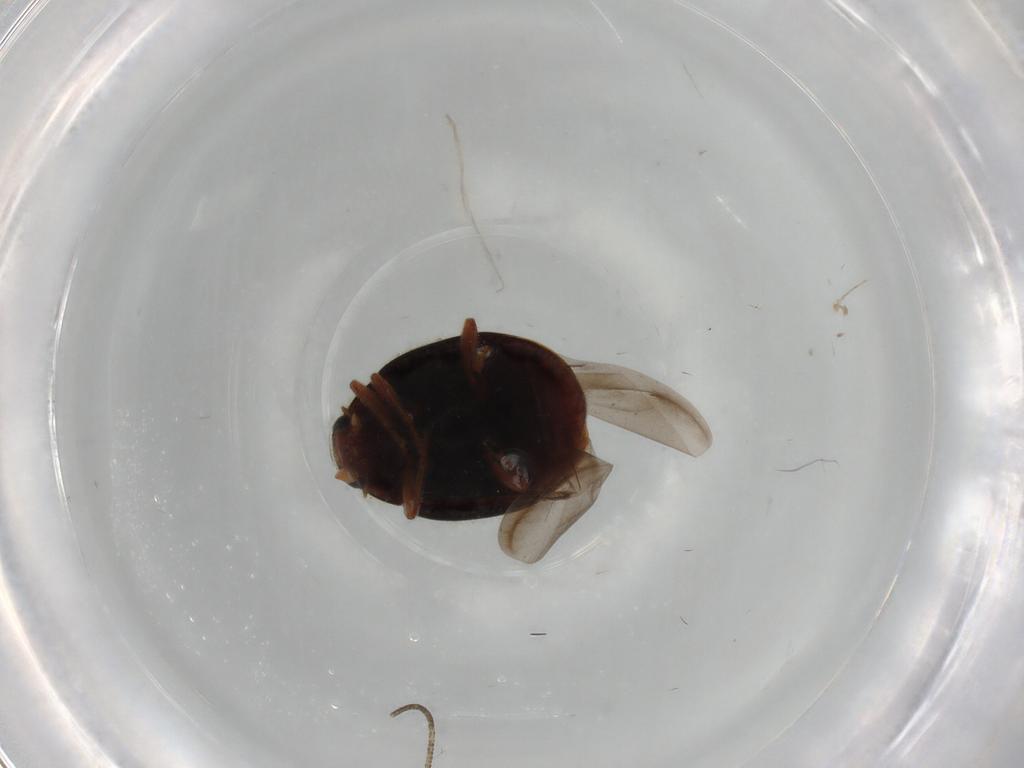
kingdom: Animalia
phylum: Arthropoda
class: Insecta
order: Coleoptera
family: Coccinellidae
